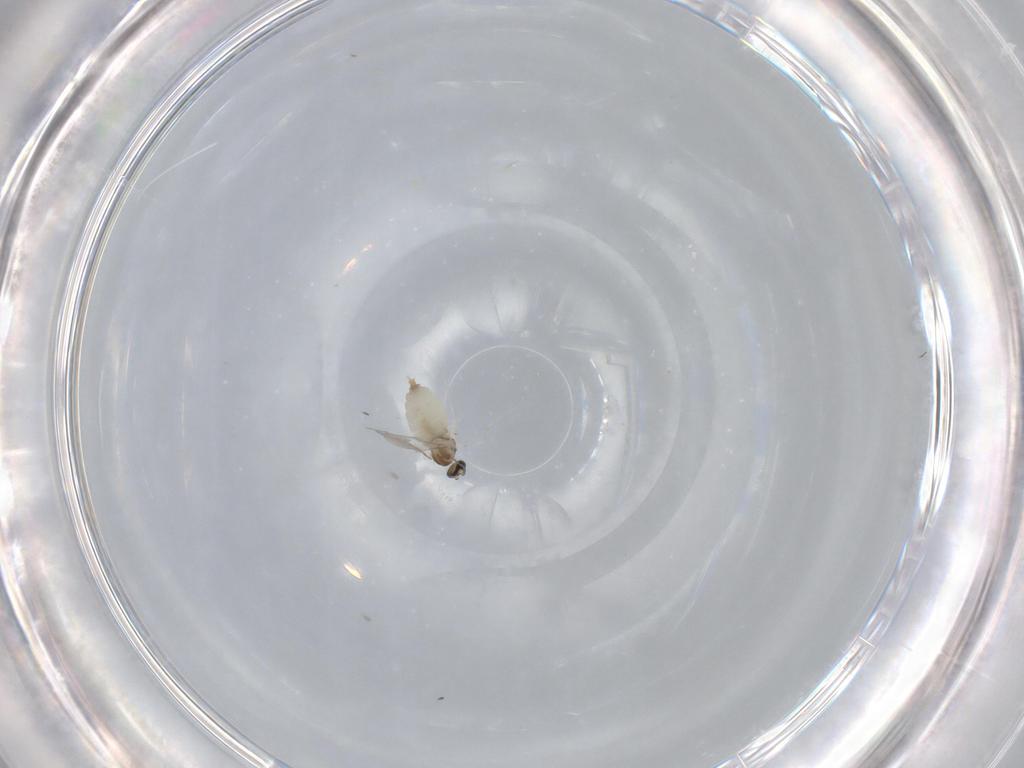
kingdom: Animalia
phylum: Arthropoda
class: Insecta
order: Diptera
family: Cecidomyiidae
